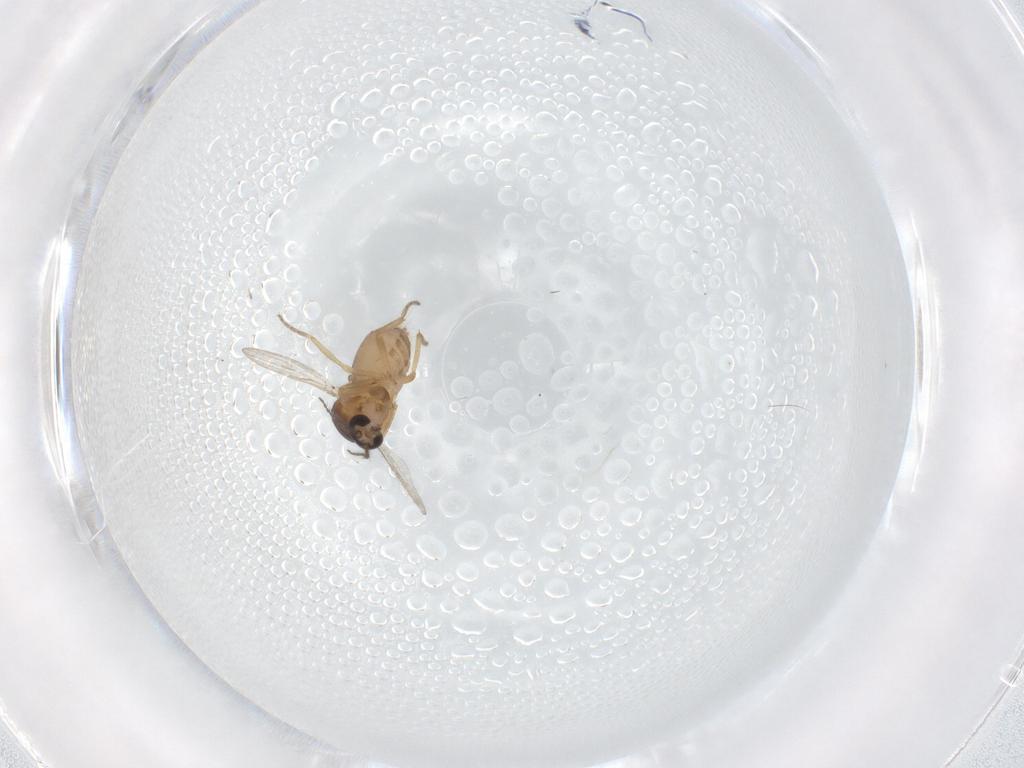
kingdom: Animalia
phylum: Arthropoda
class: Insecta
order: Diptera
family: Ceratopogonidae
